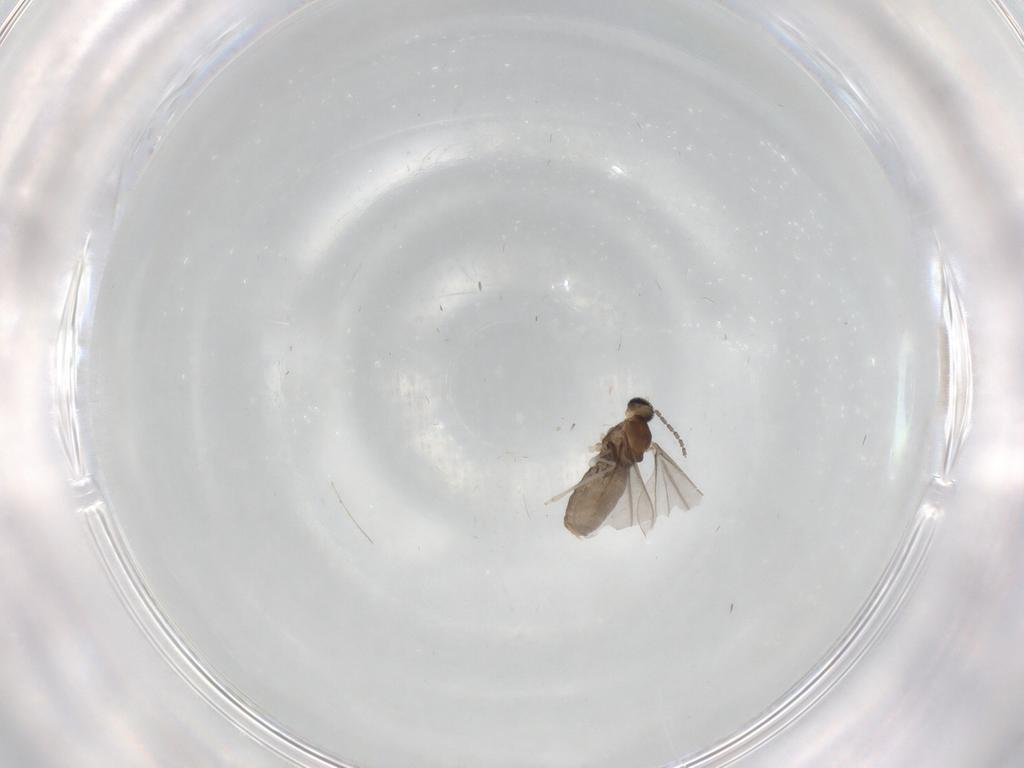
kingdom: Animalia
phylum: Arthropoda
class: Insecta
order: Diptera
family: Cecidomyiidae
